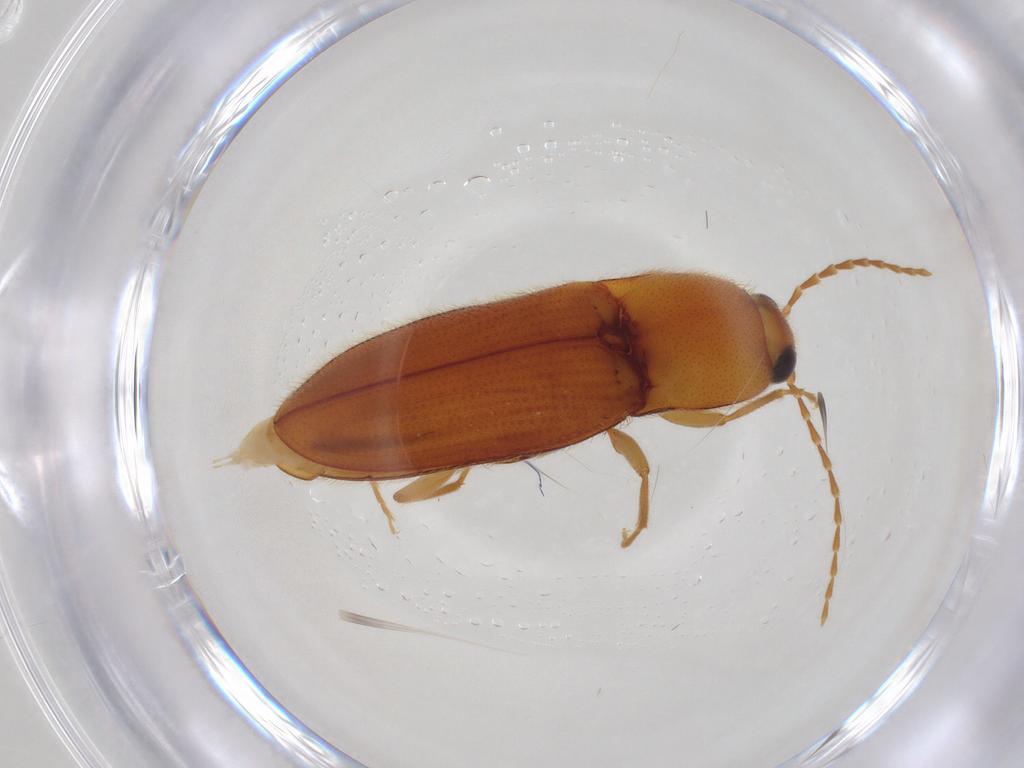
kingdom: Animalia
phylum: Arthropoda
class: Insecta
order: Coleoptera
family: Elateridae
